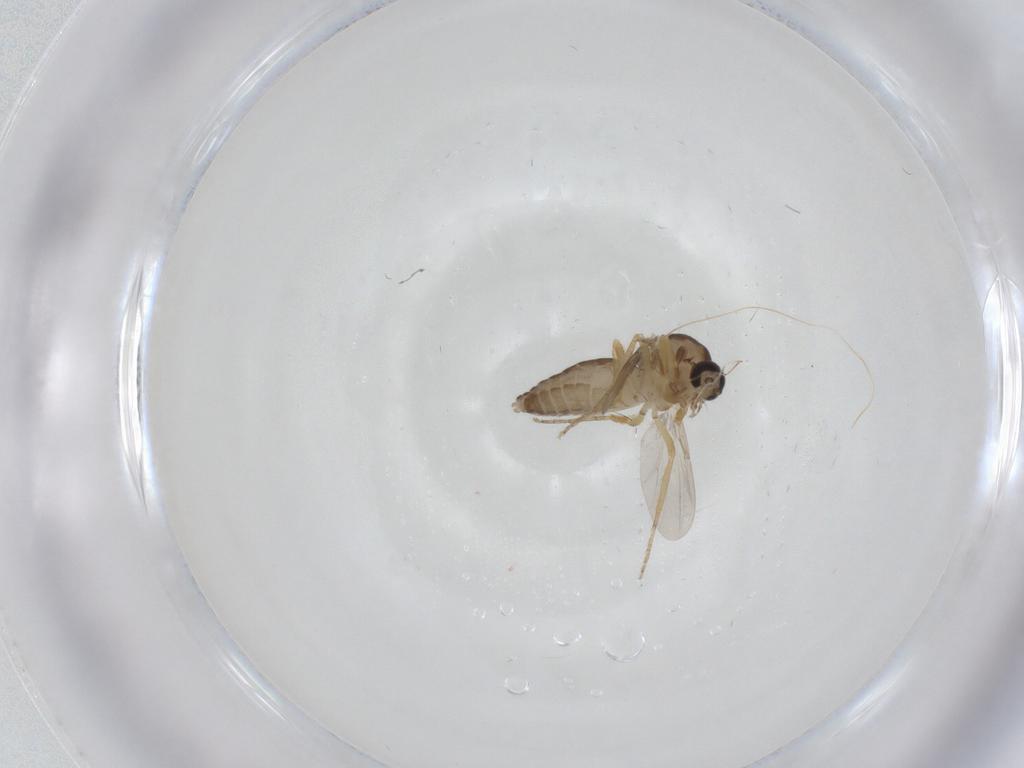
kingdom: Animalia
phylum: Arthropoda
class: Insecta
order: Diptera
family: Ceratopogonidae
